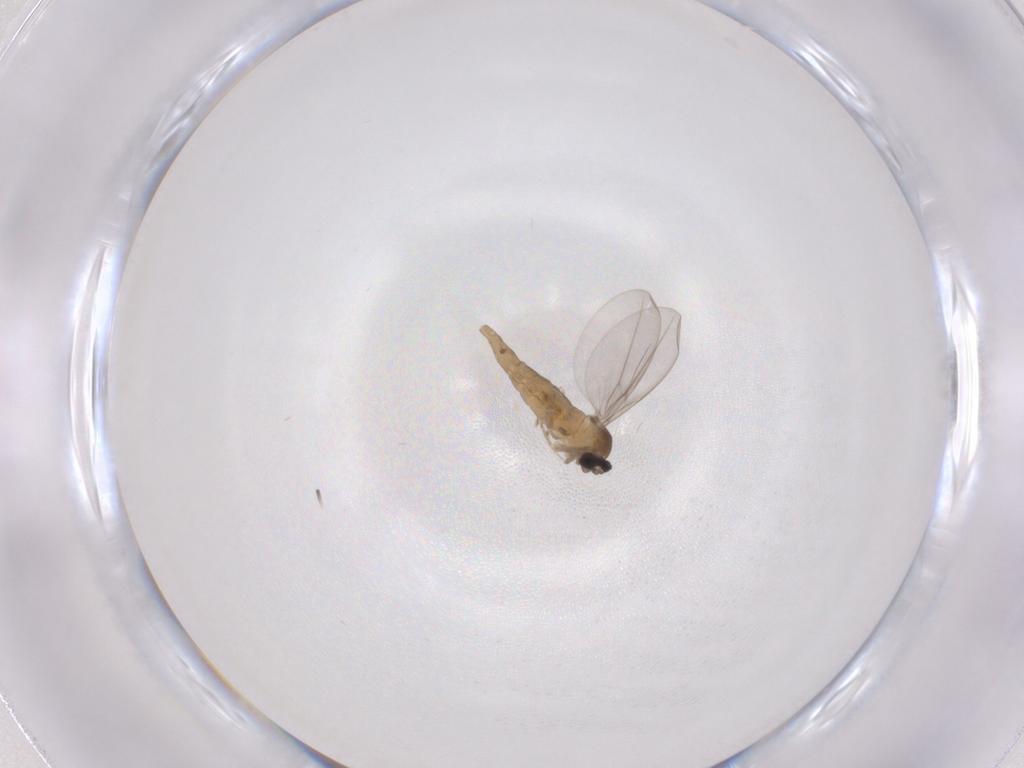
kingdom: Animalia
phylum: Arthropoda
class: Insecta
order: Diptera
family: Cecidomyiidae
